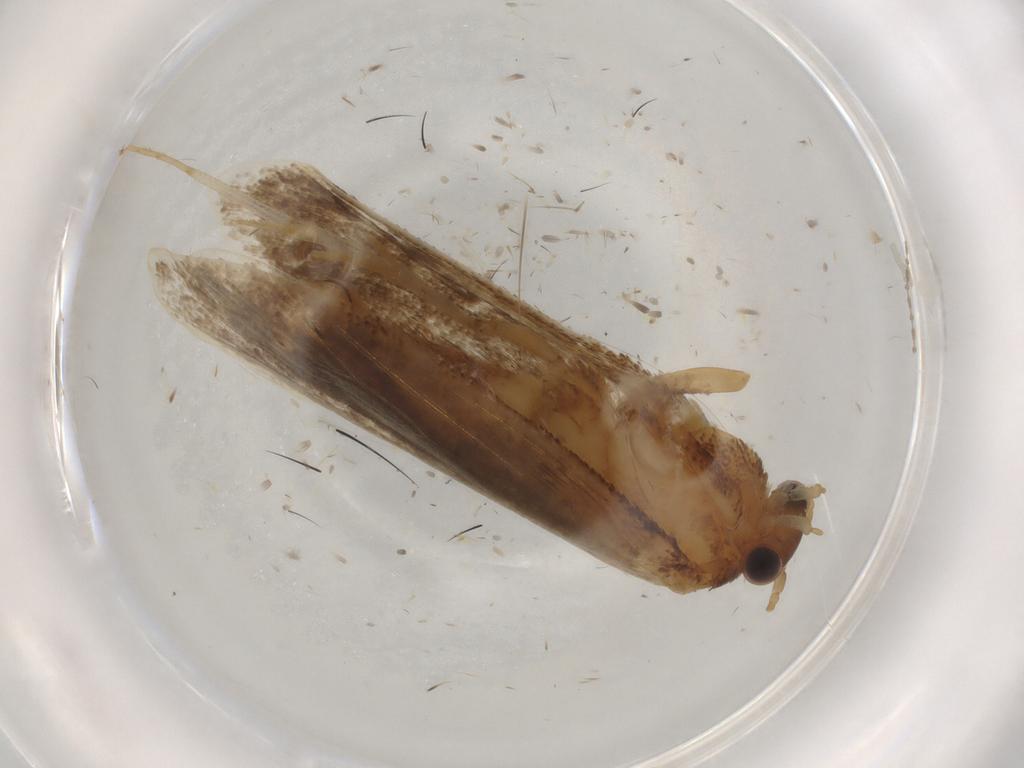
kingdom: Animalia
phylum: Arthropoda
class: Insecta
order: Lepidoptera
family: Nepticulidae
